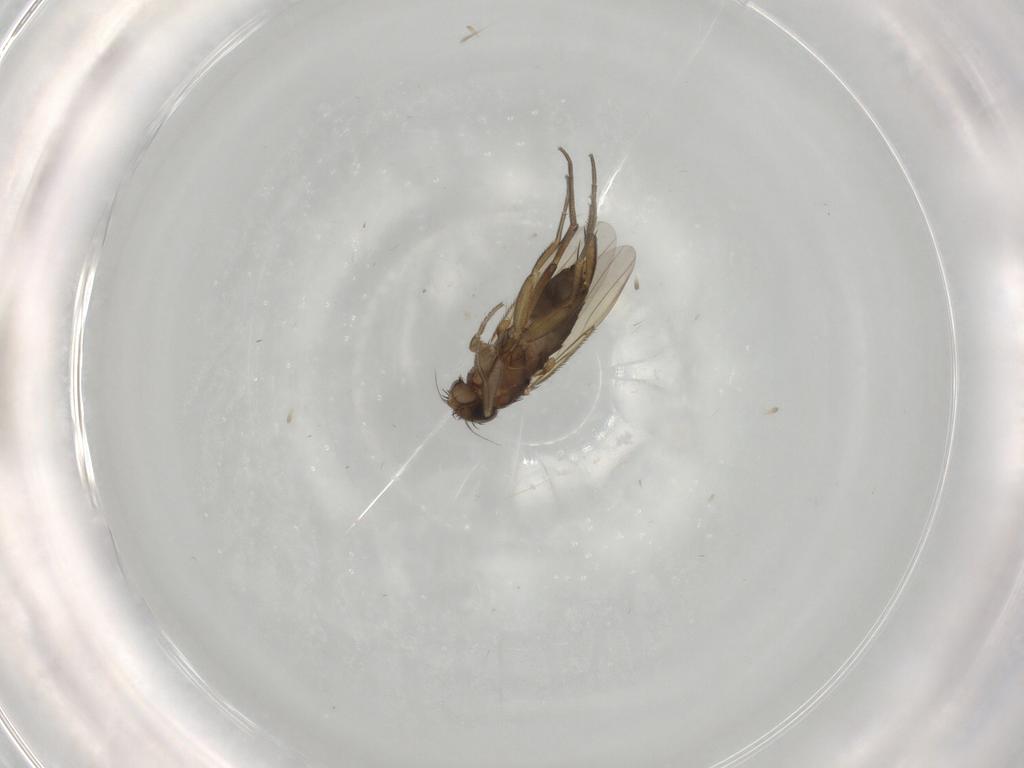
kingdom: Animalia
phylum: Arthropoda
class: Insecta
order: Diptera
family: Phoridae
